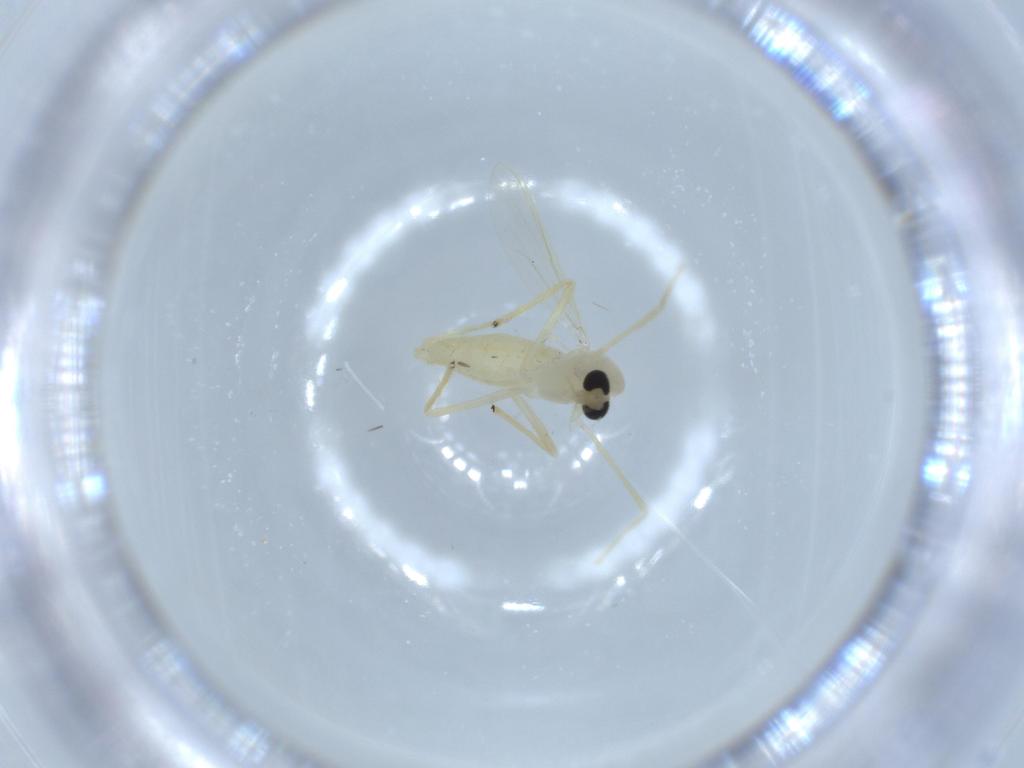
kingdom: Animalia
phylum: Arthropoda
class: Insecta
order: Diptera
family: Chironomidae
